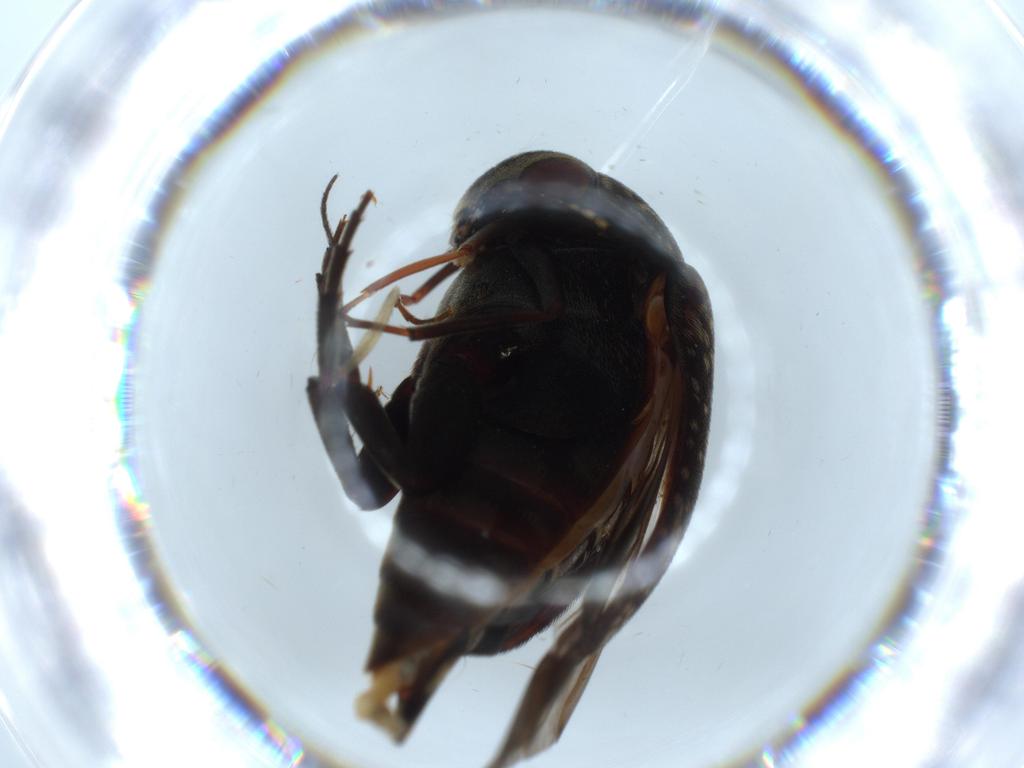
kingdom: Animalia
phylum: Arthropoda
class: Insecta
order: Coleoptera
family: Chrysomelidae
